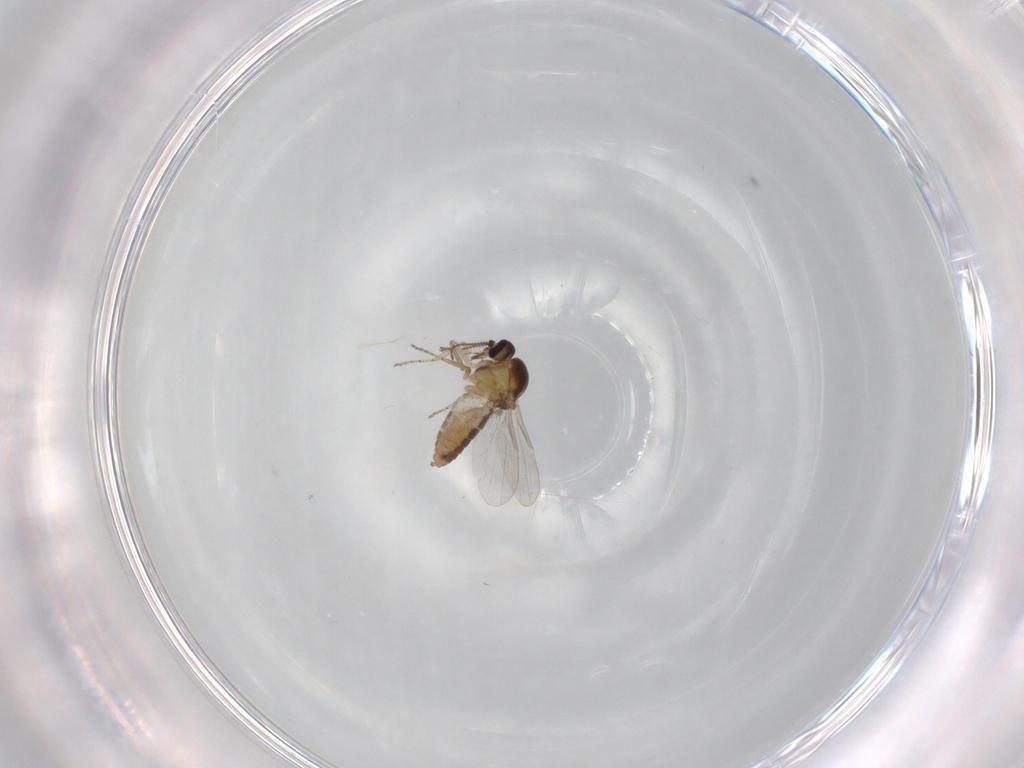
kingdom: Animalia
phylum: Arthropoda
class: Insecta
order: Diptera
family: Ceratopogonidae
